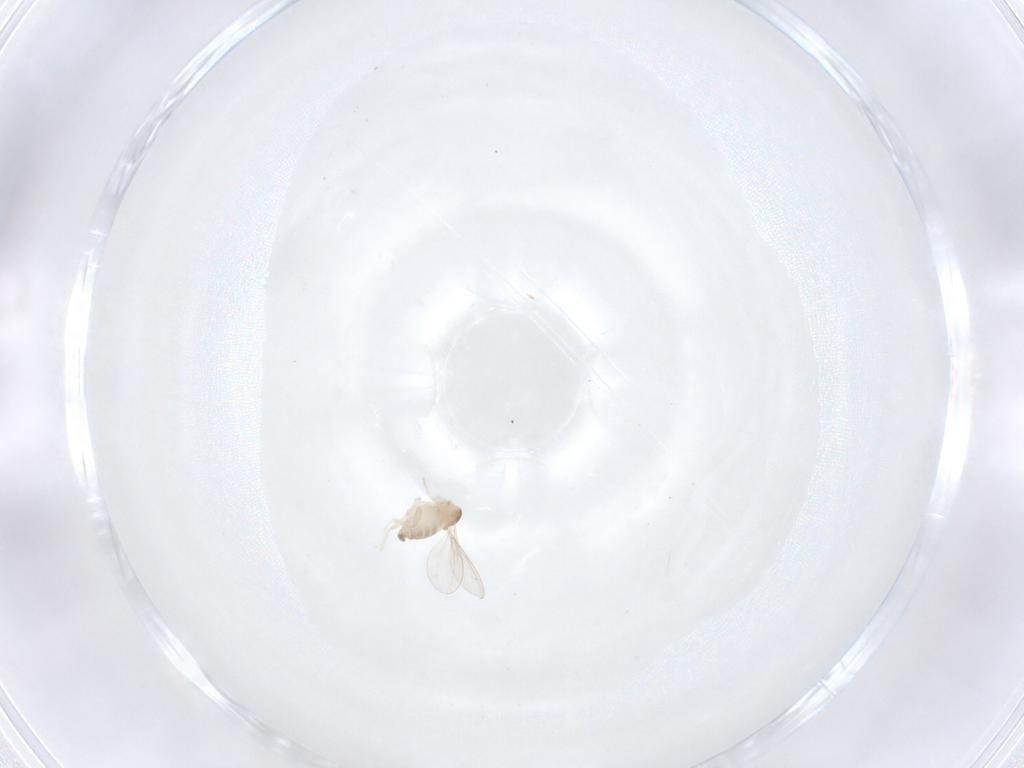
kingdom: Animalia
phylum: Arthropoda
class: Insecta
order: Diptera
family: Cecidomyiidae
